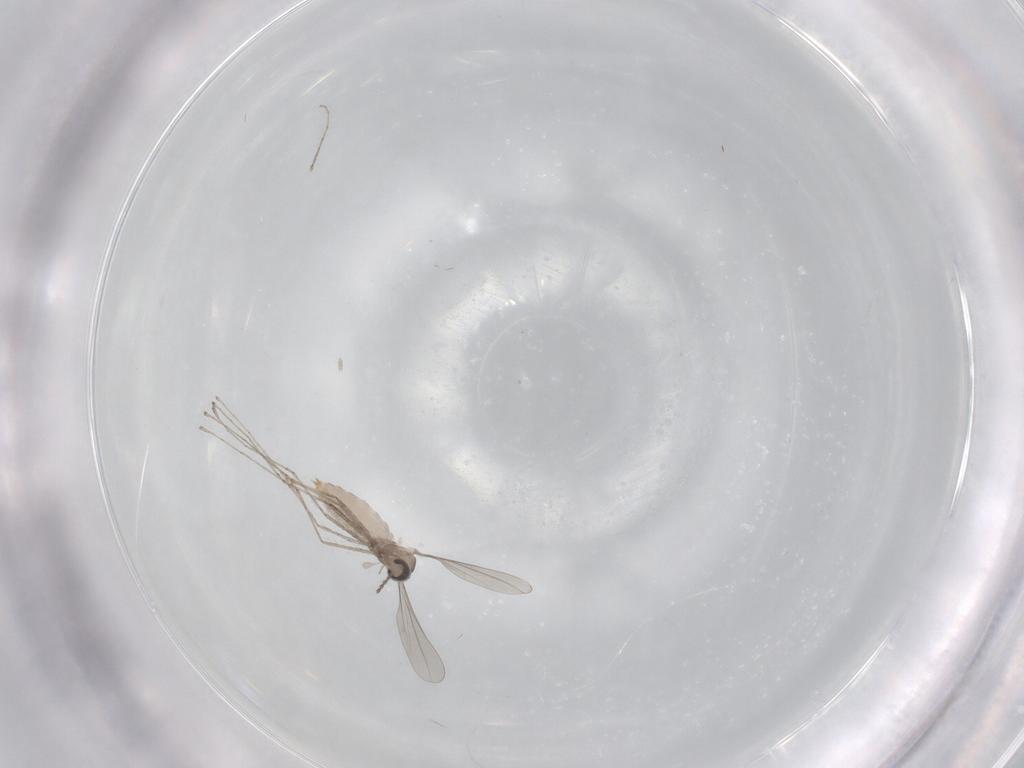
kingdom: Animalia
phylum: Arthropoda
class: Insecta
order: Diptera
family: Cecidomyiidae
